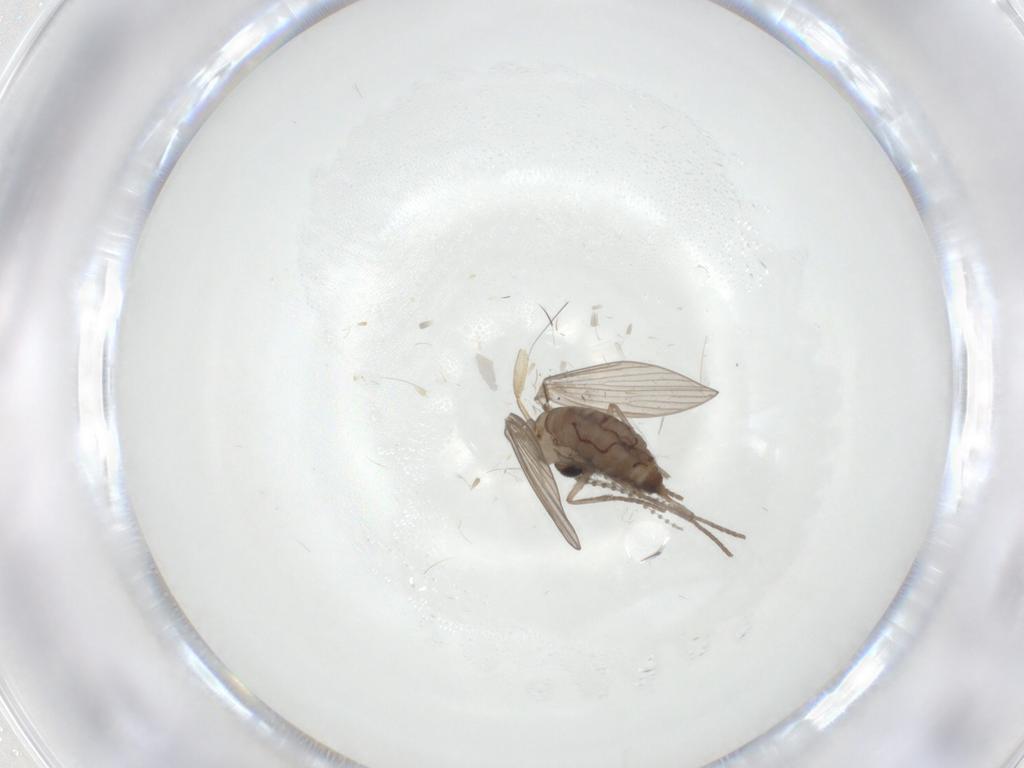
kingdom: Animalia
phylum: Arthropoda
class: Insecta
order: Diptera
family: Psychodidae
